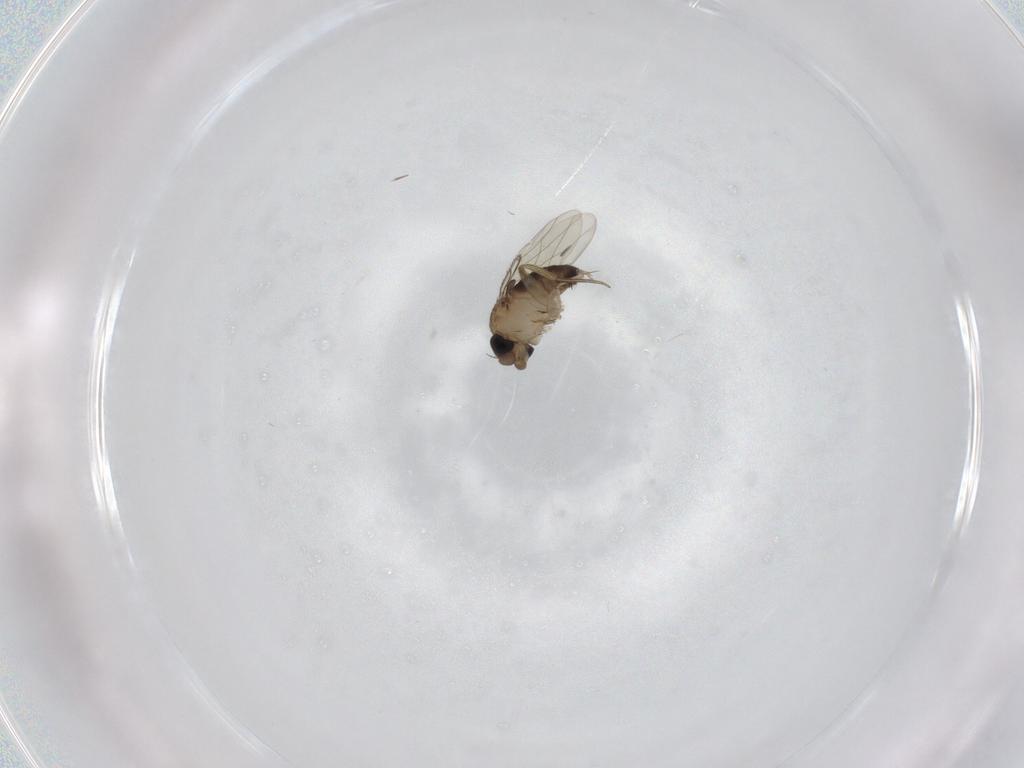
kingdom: Animalia
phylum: Arthropoda
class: Insecta
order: Diptera
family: Phoridae
